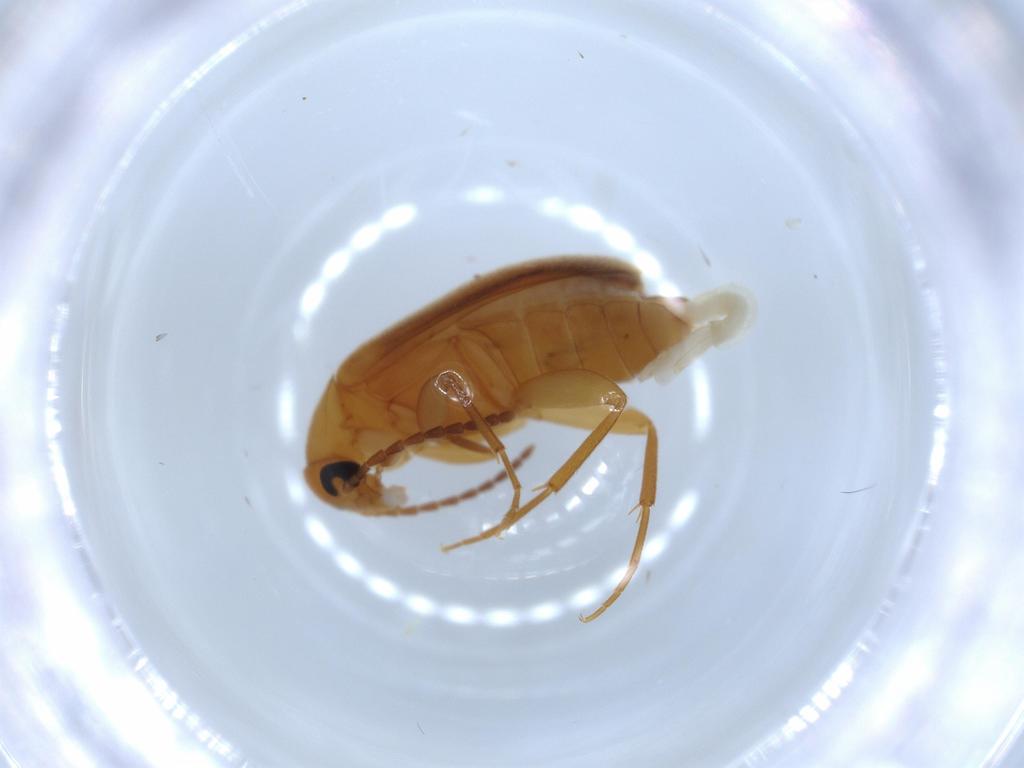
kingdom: Animalia
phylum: Arthropoda
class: Insecta
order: Coleoptera
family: Scraptiidae
